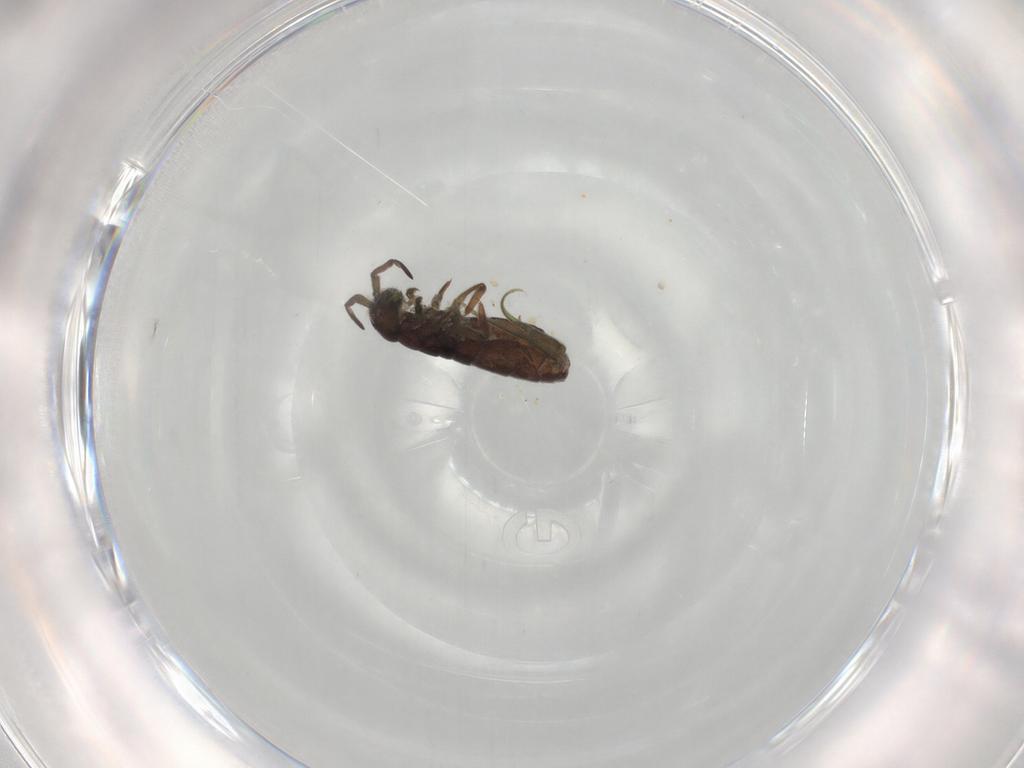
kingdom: Animalia
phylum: Arthropoda
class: Collembola
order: Entomobryomorpha
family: Isotomidae
